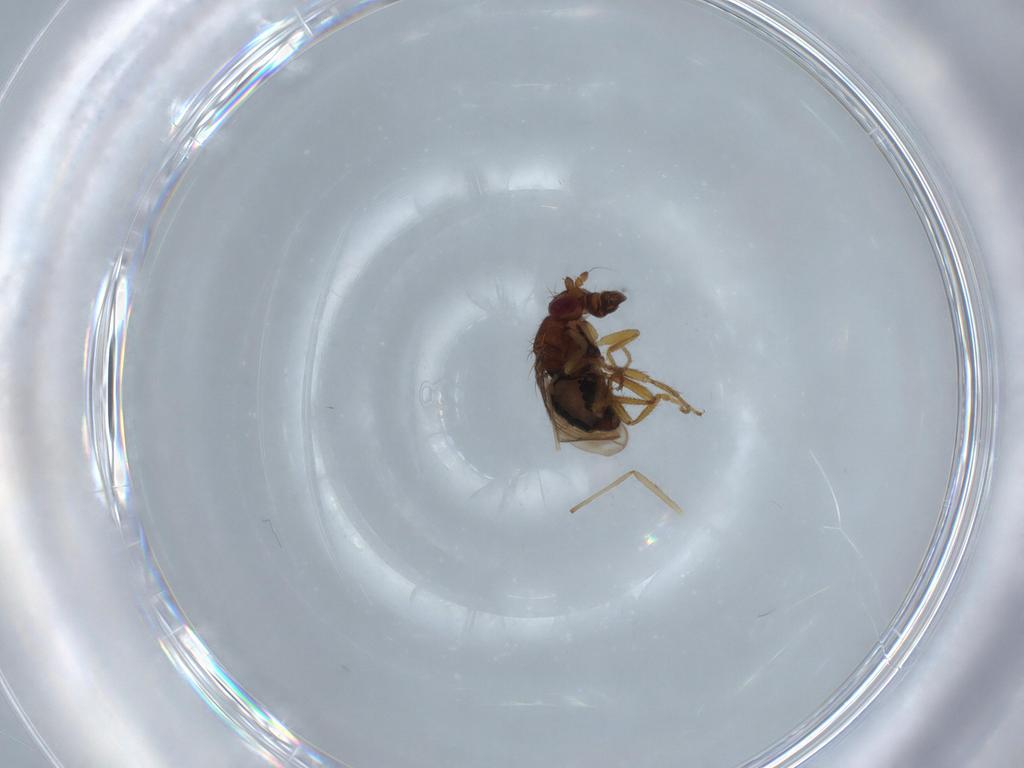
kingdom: Animalia
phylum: Arthropoda
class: Insecta
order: Diptera
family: Sphaeroceridae
